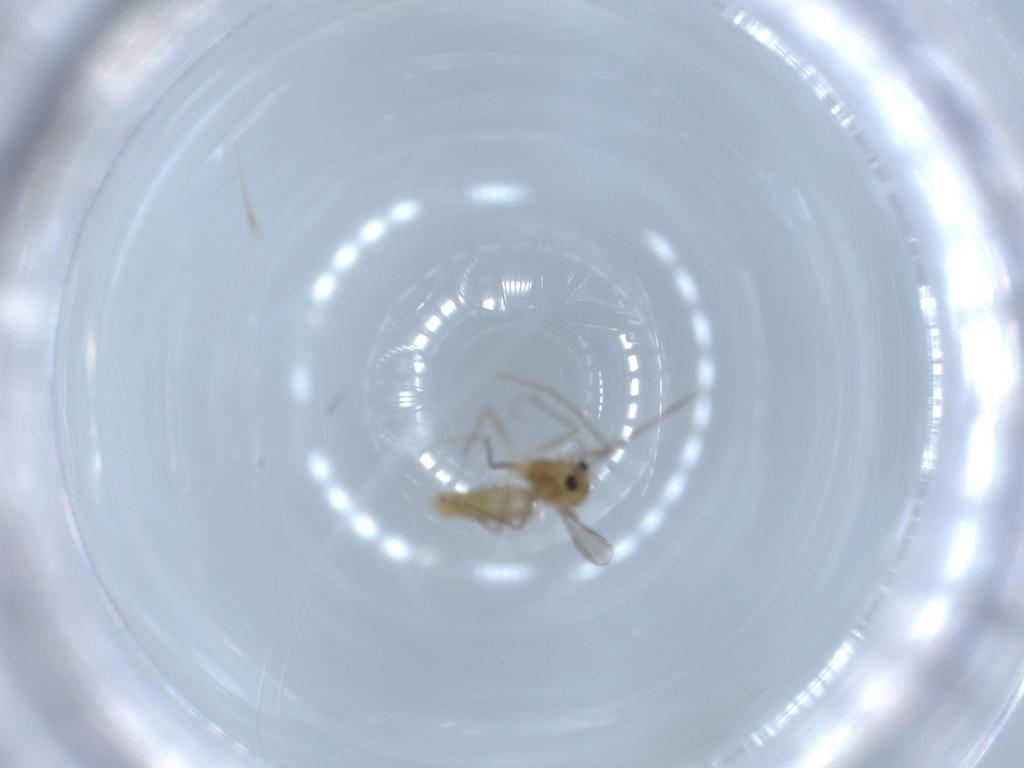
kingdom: Animalia
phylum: Arthropoda
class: Insecta
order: Diptera
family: Chironomidae
